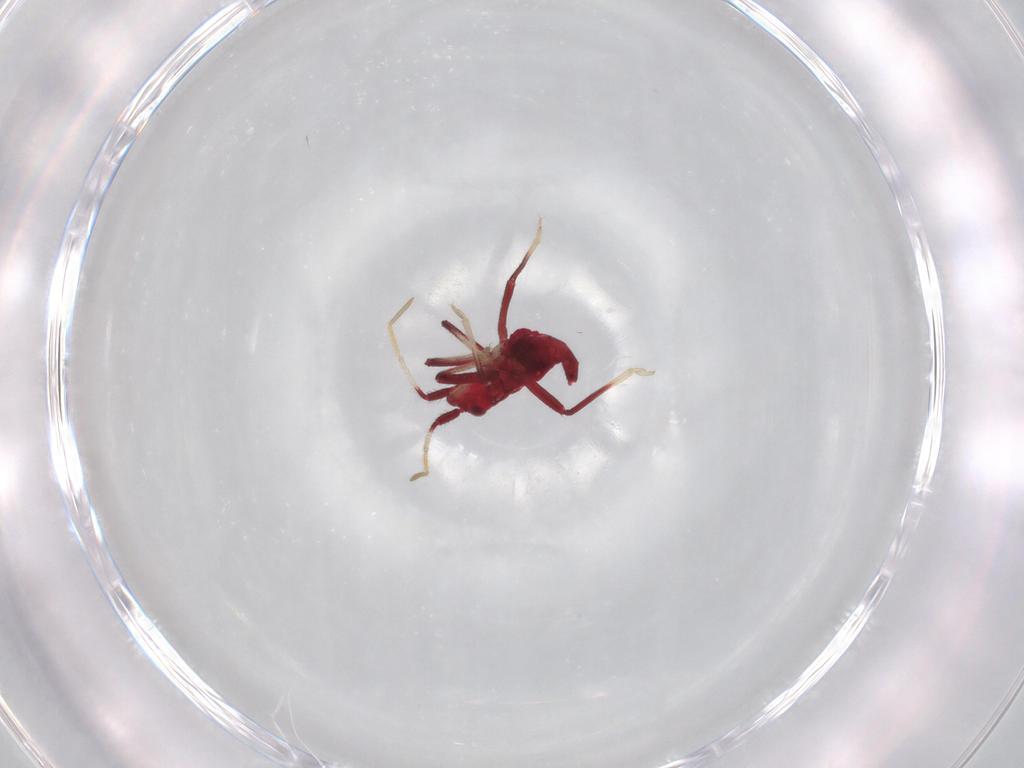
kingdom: Animalia
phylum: Arthropoda
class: Insecta
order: Hemiptera
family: Miridae
